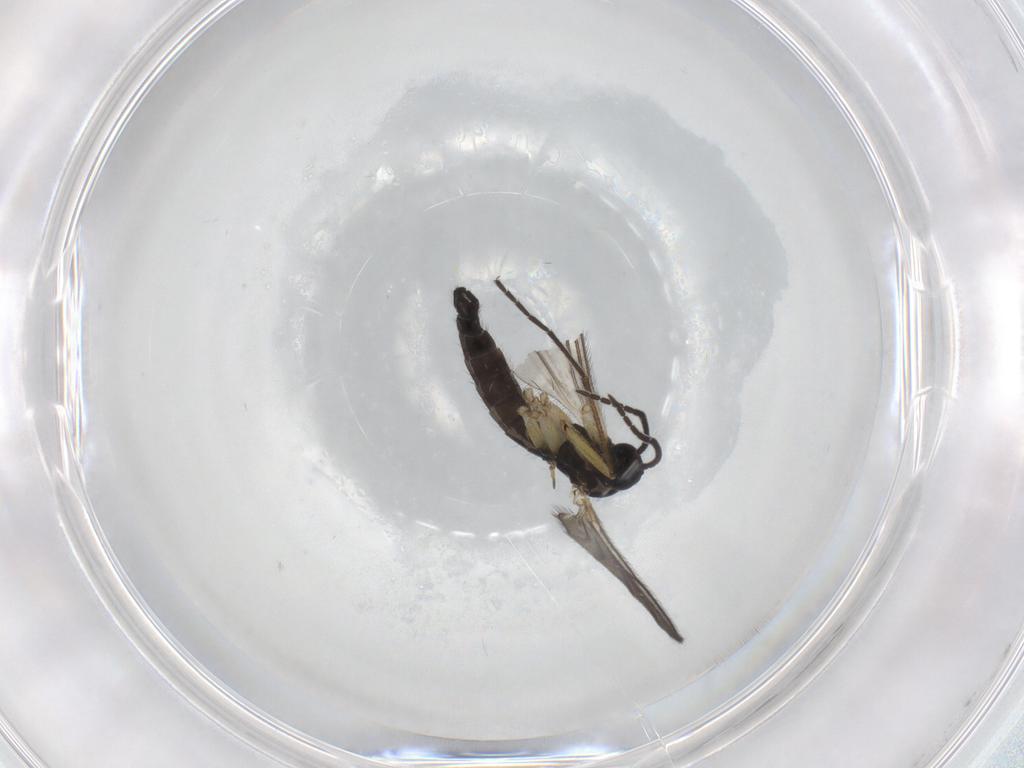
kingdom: Animalia
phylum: Arthropoda
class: Insecta
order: Diptera
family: Sciaridae
